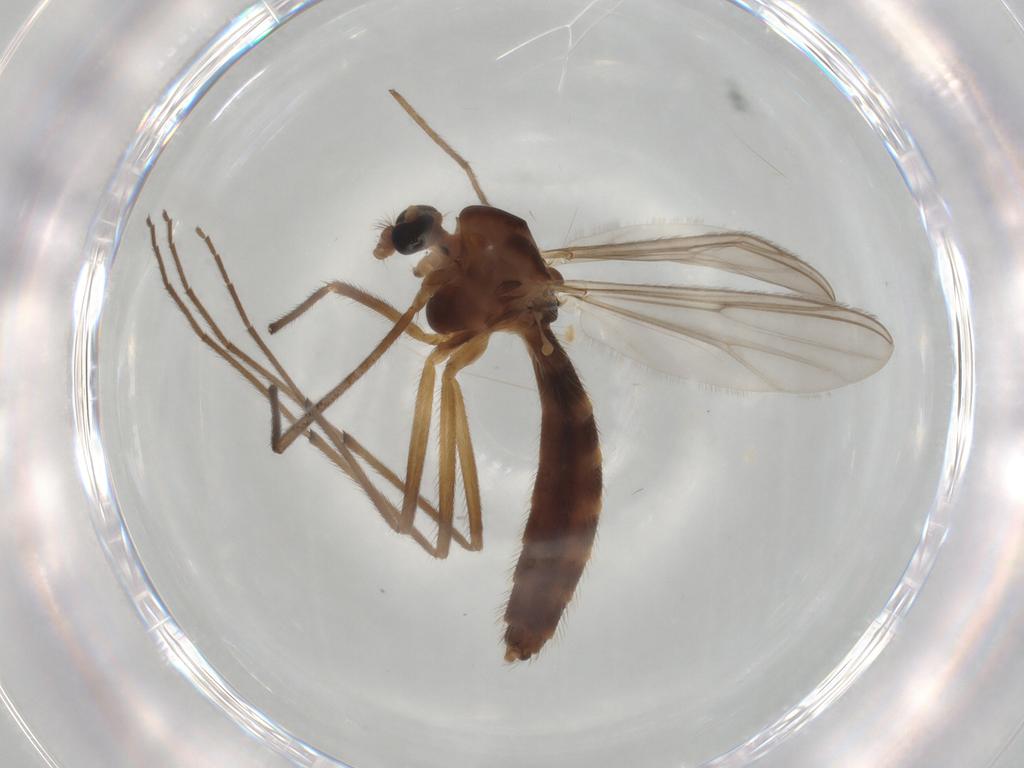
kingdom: Animalia
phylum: Arthropoda
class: Insecta
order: Diptera
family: Chironomidae
